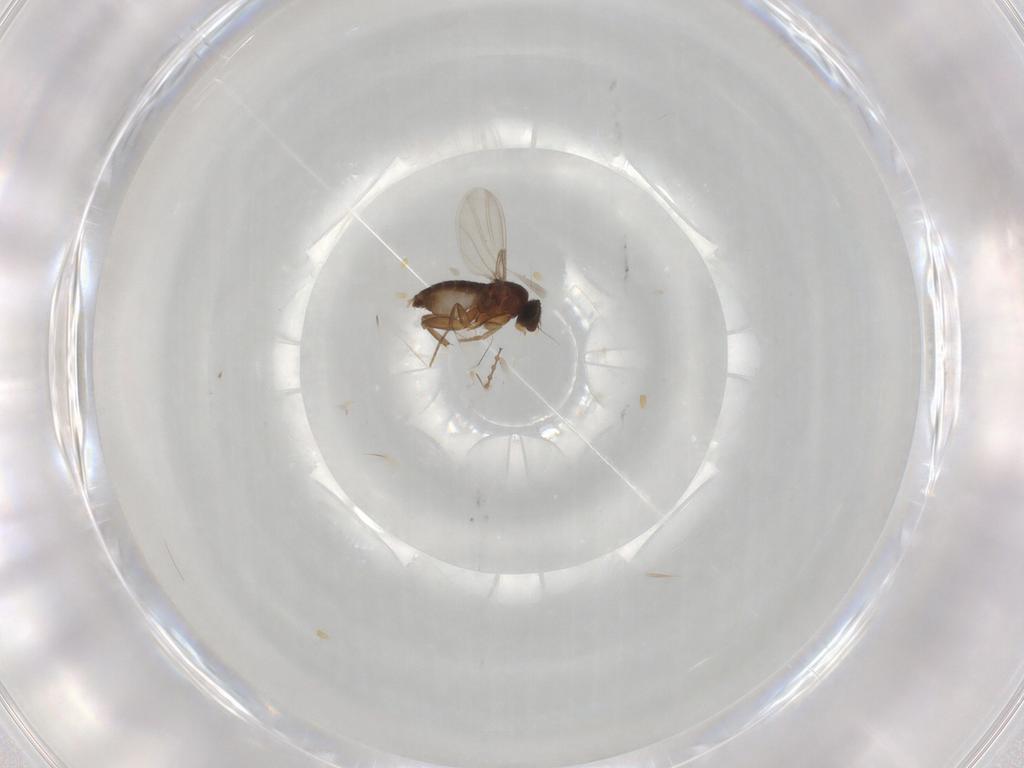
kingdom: Animalia
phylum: Arthropoda
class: Insecta
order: Diptera
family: Phoridae
